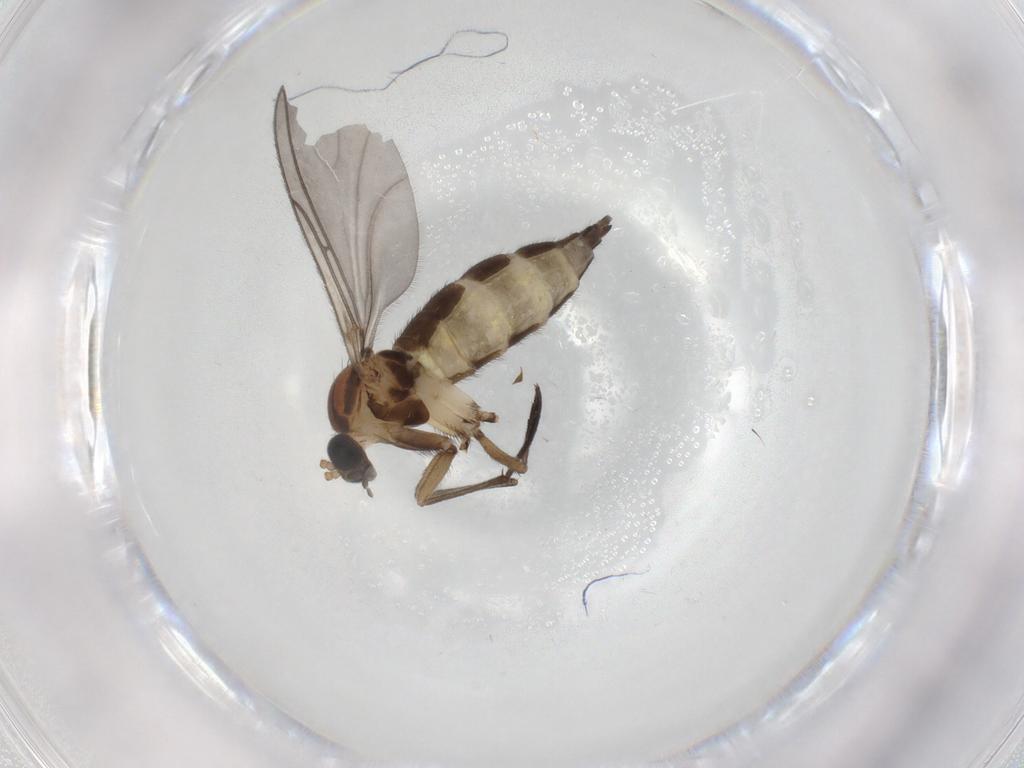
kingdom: Animalia
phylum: Arthropoda
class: Insecta
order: Diptera
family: Sciaridae
